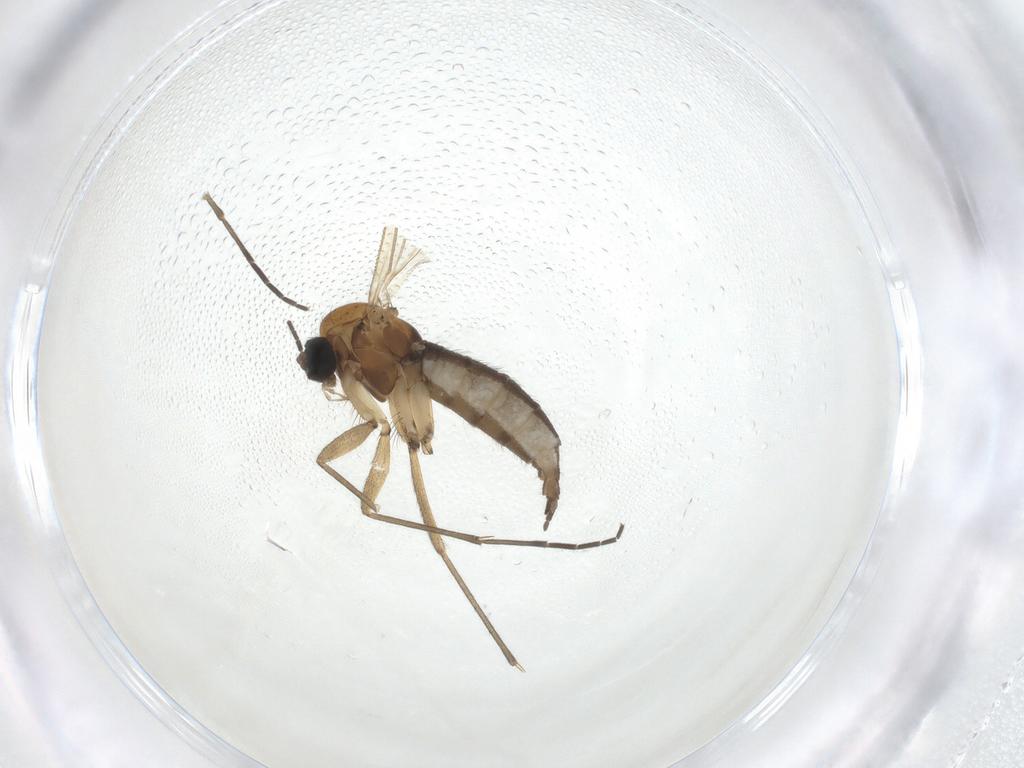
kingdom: Animalia
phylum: Arthropoda
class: Insecta
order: Diptera
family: Sciaridae
